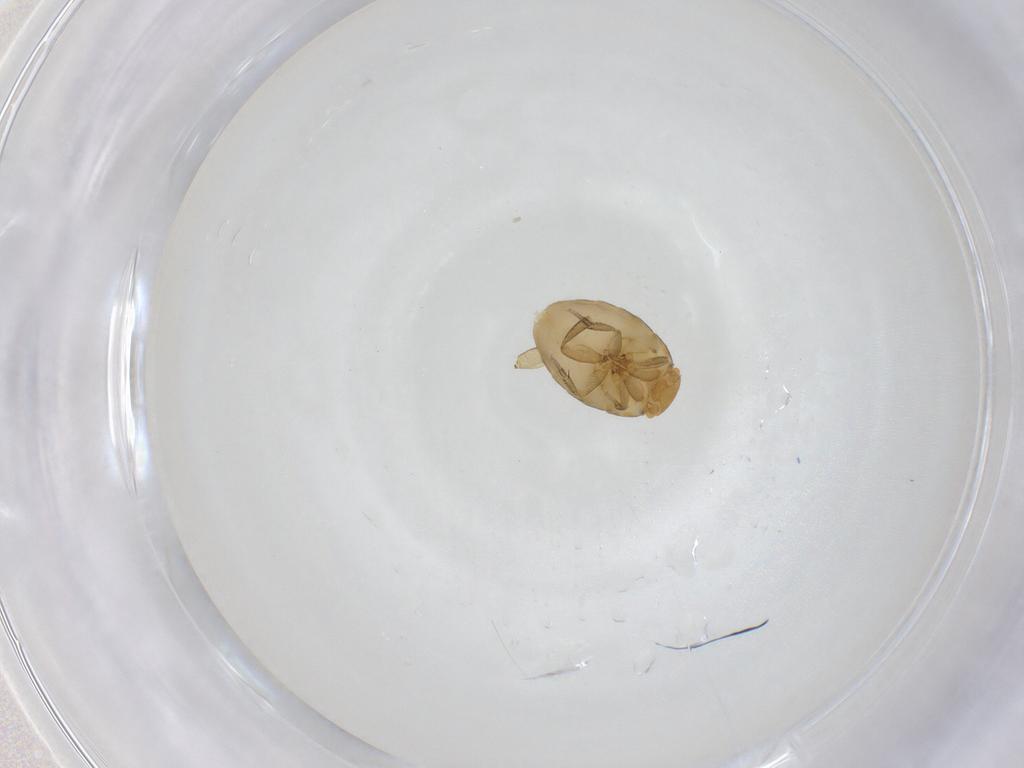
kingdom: Animalia
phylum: Arthropoda
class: Insecta
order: Diptera
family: Phoridae
